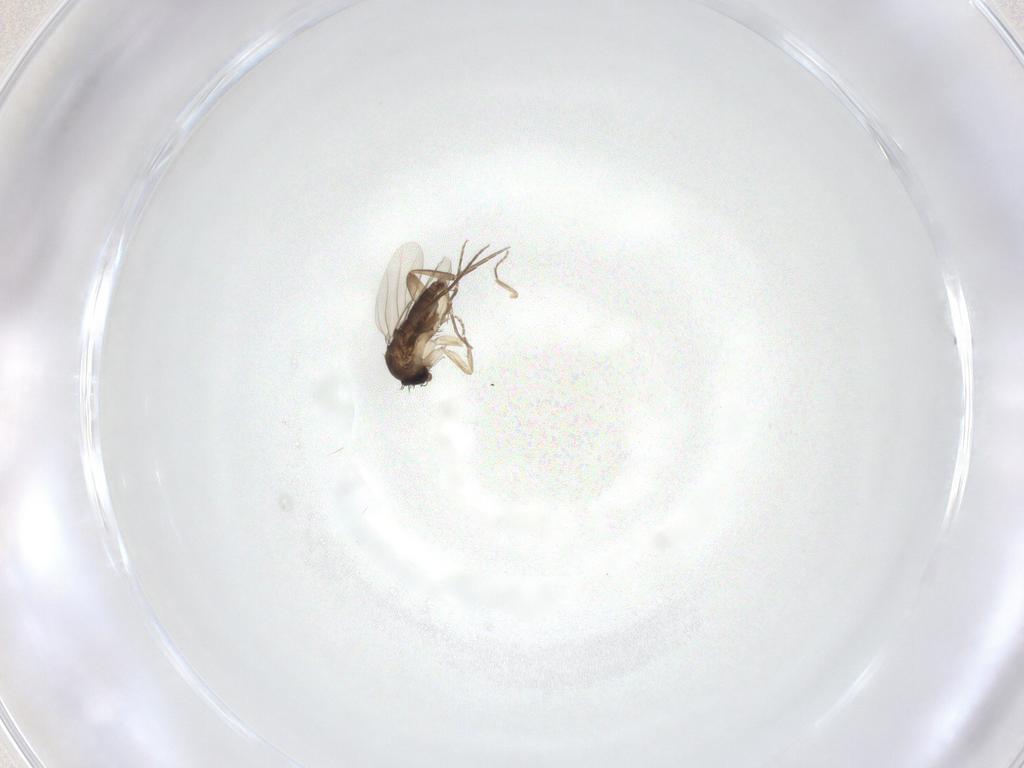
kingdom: Animalia
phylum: Arthropoda
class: Insecta
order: Diptera
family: Phoridae
